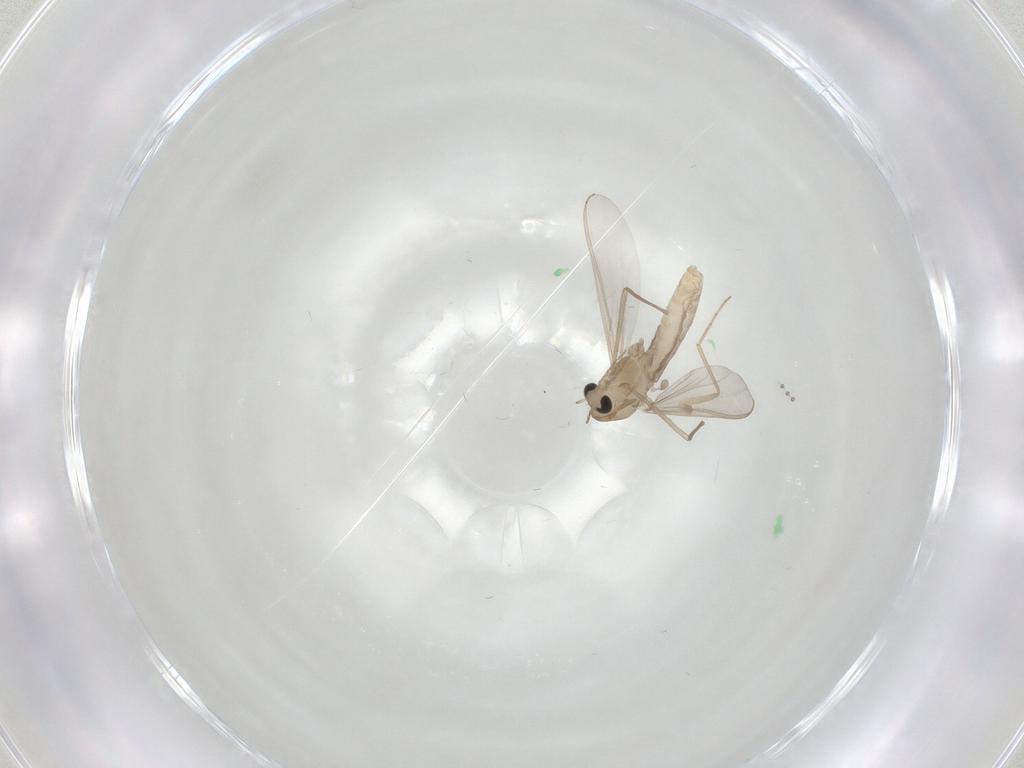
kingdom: Animalia
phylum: Arthropoda
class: Insecta
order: Diptera
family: Chironomidae
